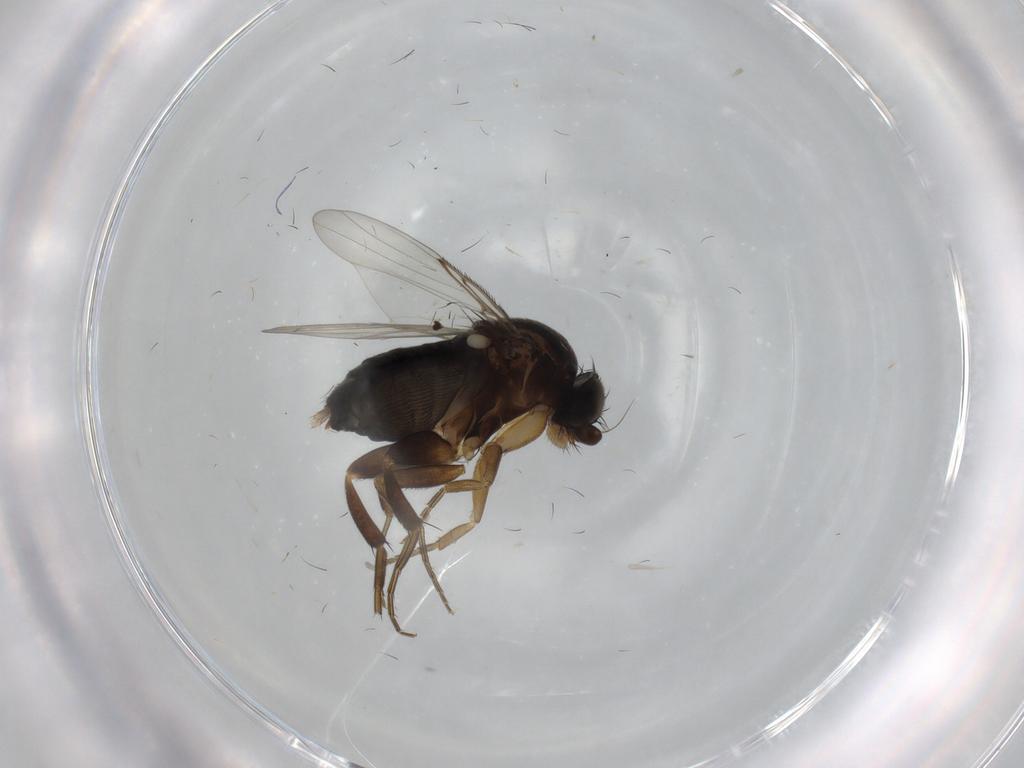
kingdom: Animalia
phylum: Arthropoda
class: Insecta
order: Diptera
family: Phoridae
